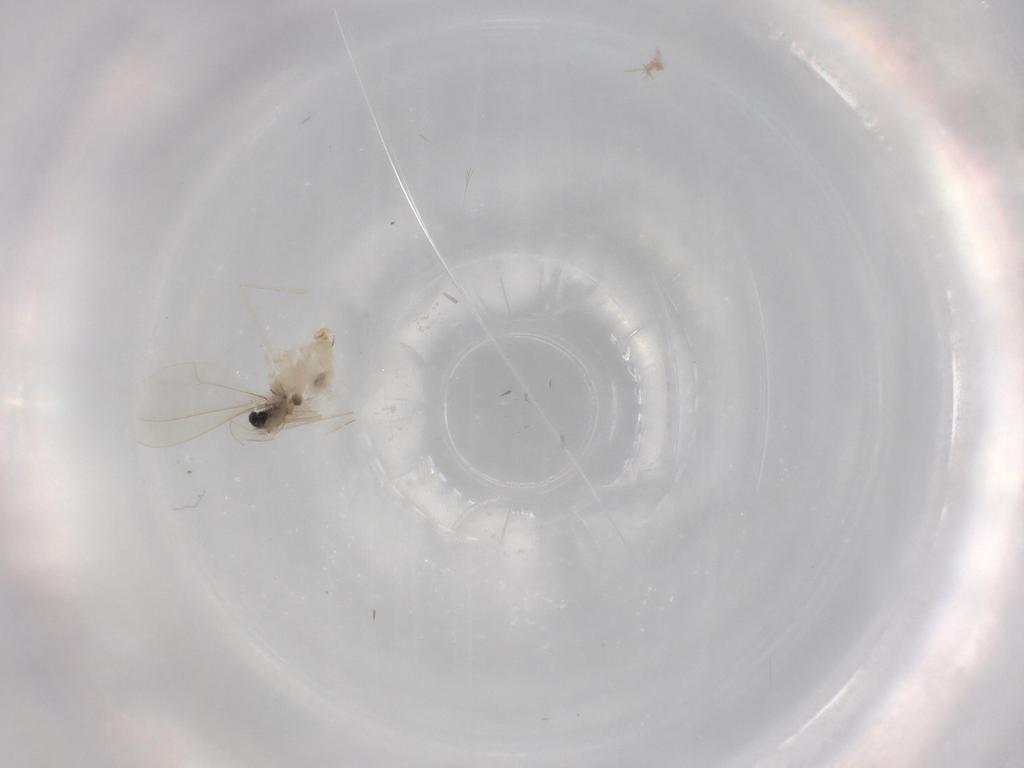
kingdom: Animalia
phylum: Arthropoda
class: Insecta
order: Diptera
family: Cecidomyiidae
